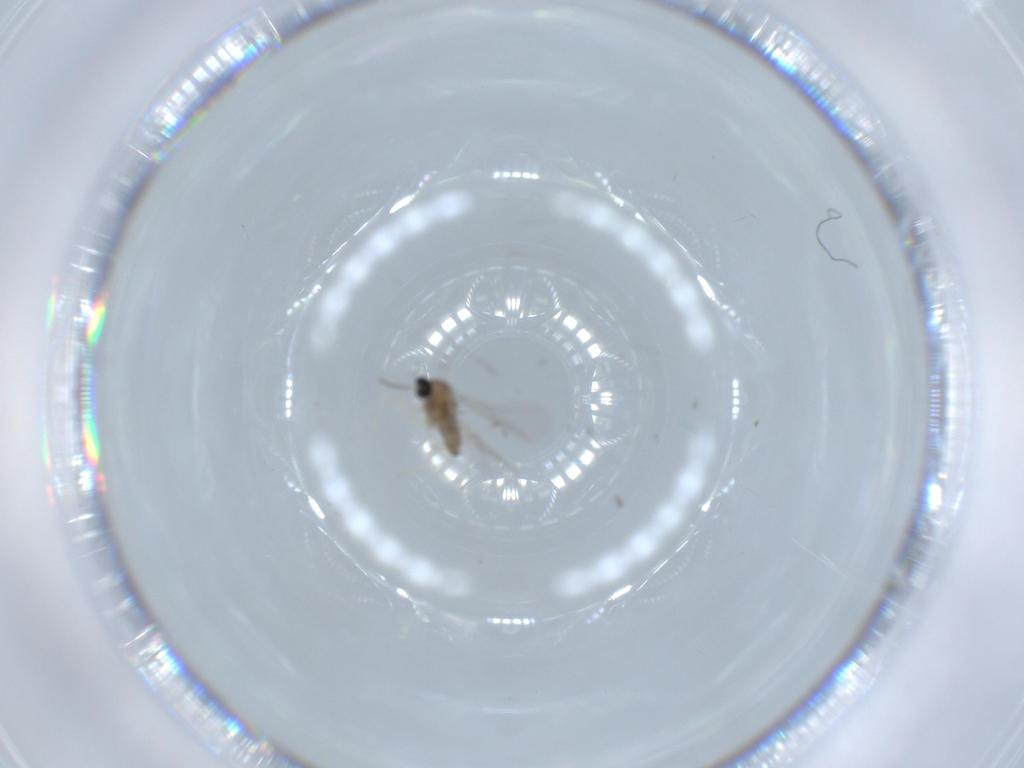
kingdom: Animalia
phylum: Arthropoda
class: Insecta
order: Diptera
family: Cecidomyiidae
